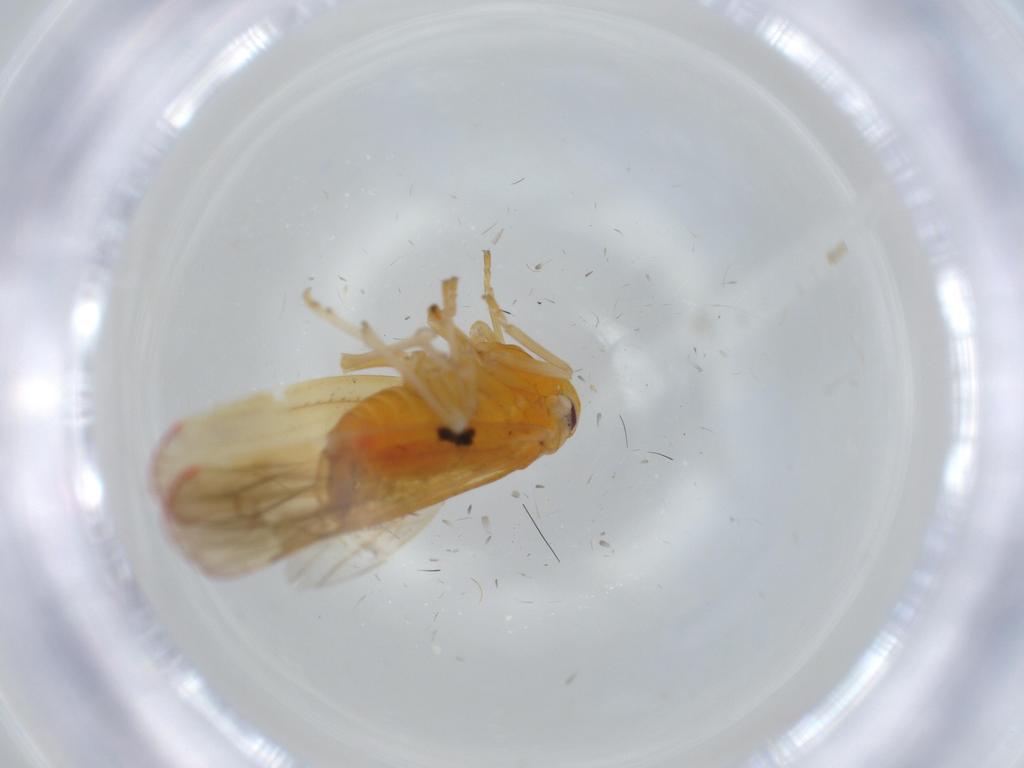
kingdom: Animalia
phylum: Arthropoda
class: Insecta
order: Hemiptera
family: Derbidae
